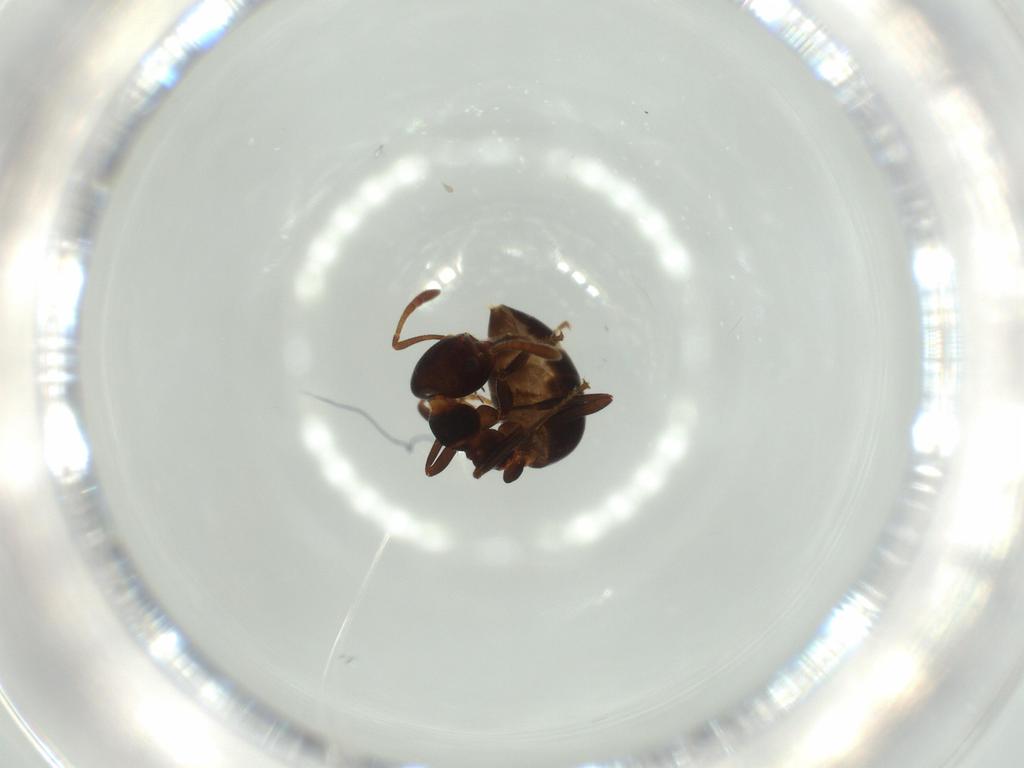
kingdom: Animalia
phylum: Arthropoda
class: Insecta
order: Hymenoptera
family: Formicidae
